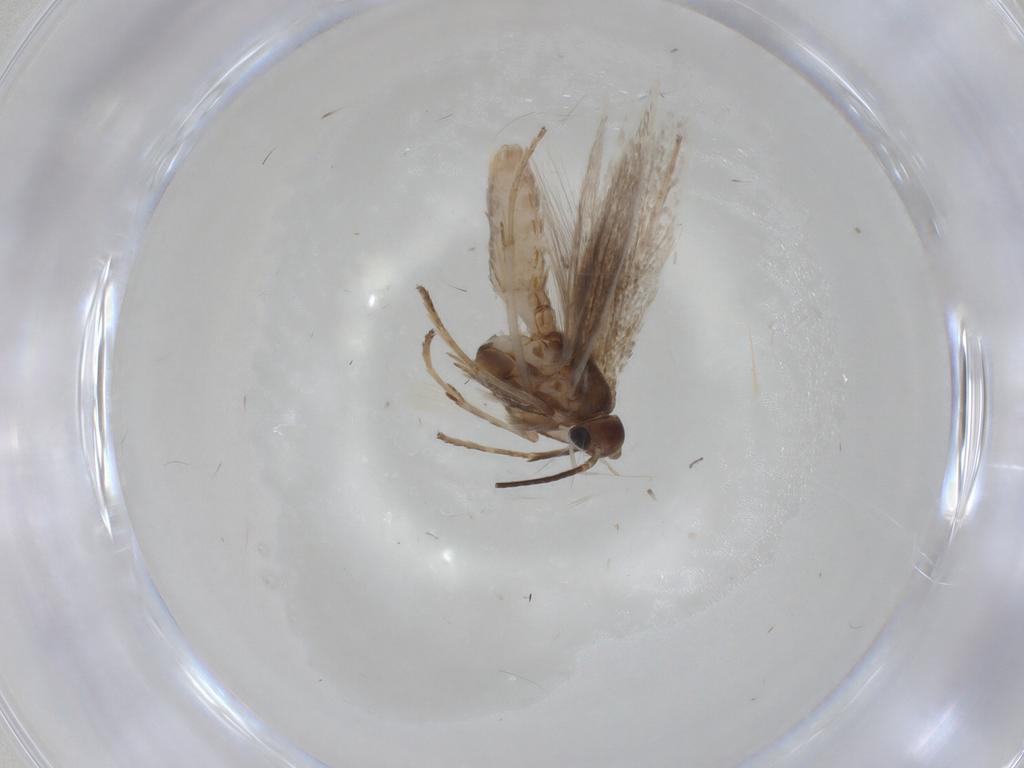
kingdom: Animalia
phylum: Arthropoda
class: Insecta
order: Lepidoptera
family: Coleophoridae
